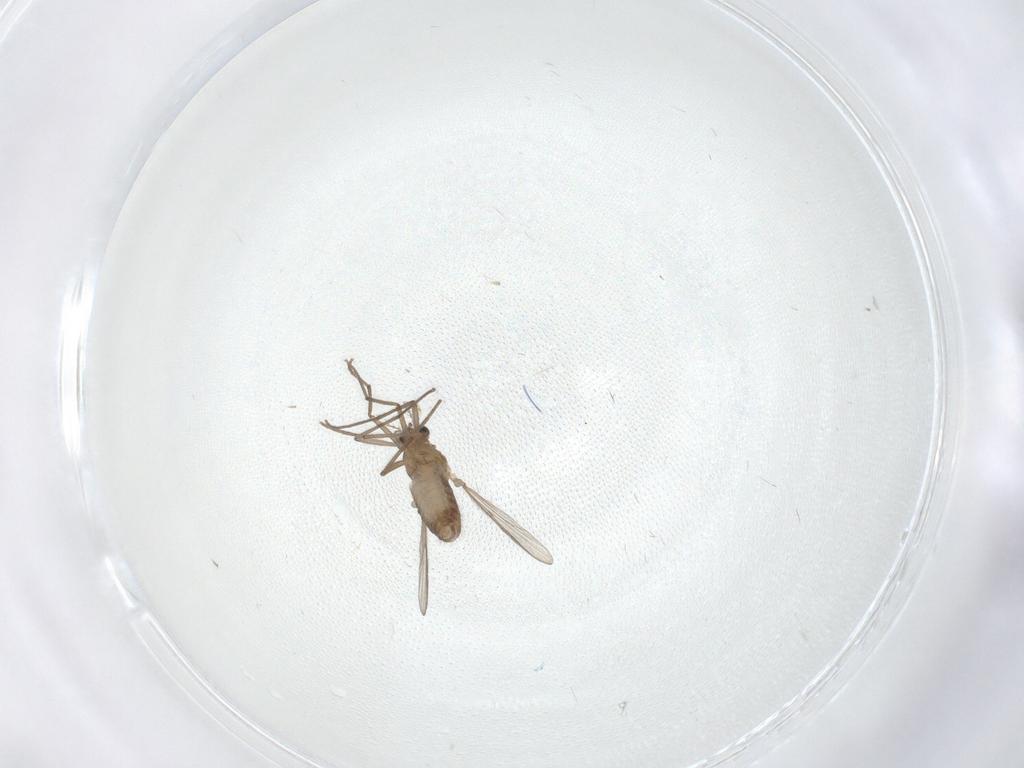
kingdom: Animalia
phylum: Arthropoda
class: Insecta
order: Diptera
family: Chironomidae
